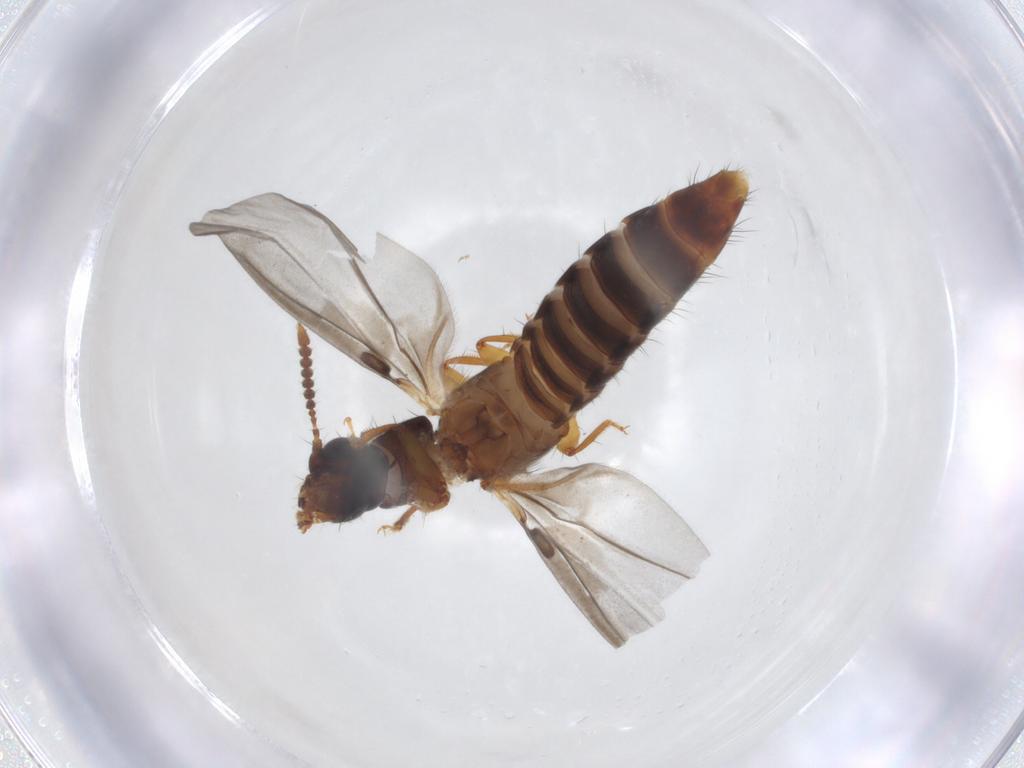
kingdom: Animalia
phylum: Arthropoda
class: Insecta
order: Coleoptera
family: Staphylinidae
